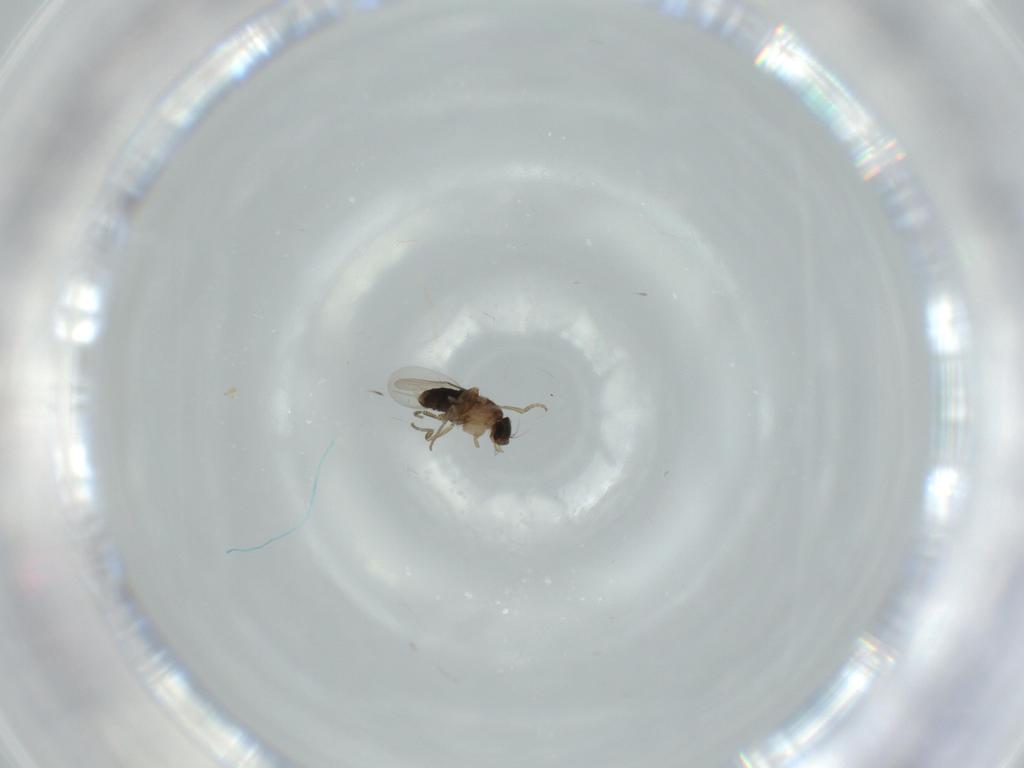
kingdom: Animalia
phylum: Arthropoda
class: Insecta
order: Diptera
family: Phoridae
